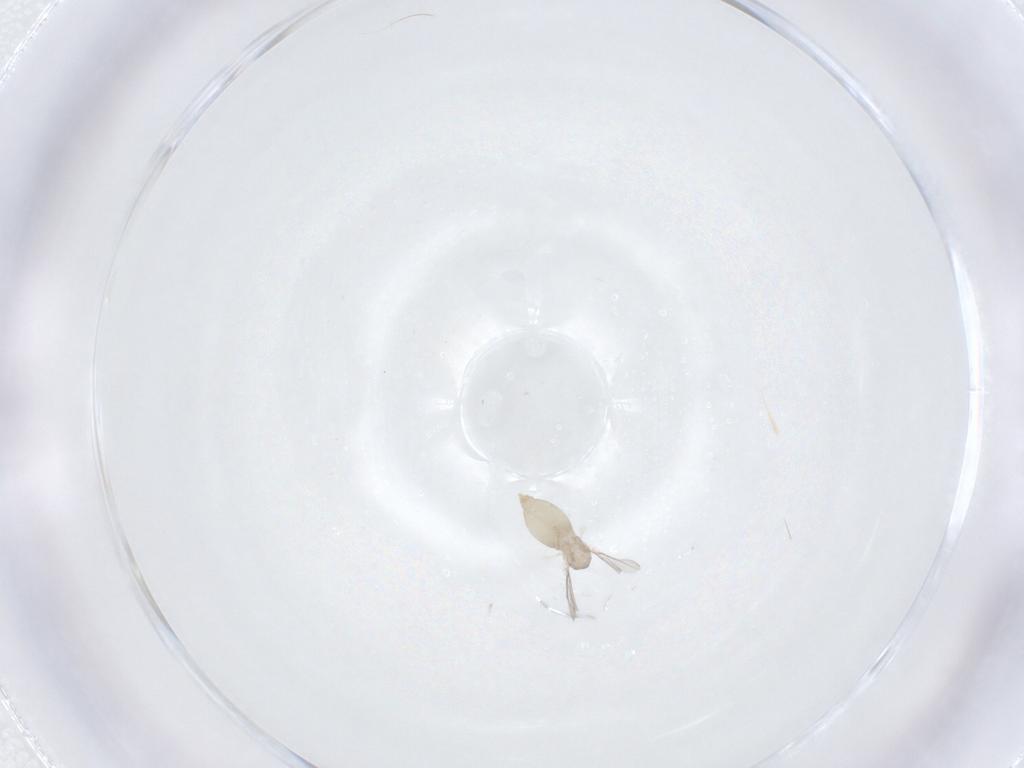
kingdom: Animalia
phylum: Arthropoda
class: Insecta
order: Diptera
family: Cecidomyiidae
